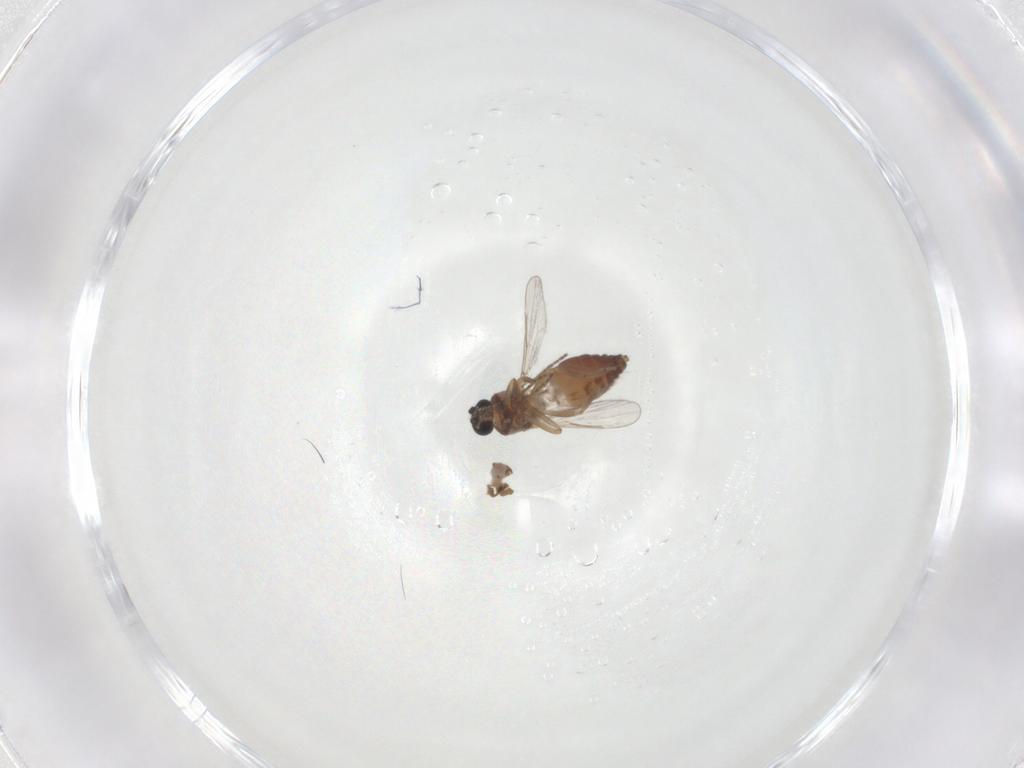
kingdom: Animalia
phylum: Arthropoda
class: Insecta
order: Diptera
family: Ceratopogonidae
